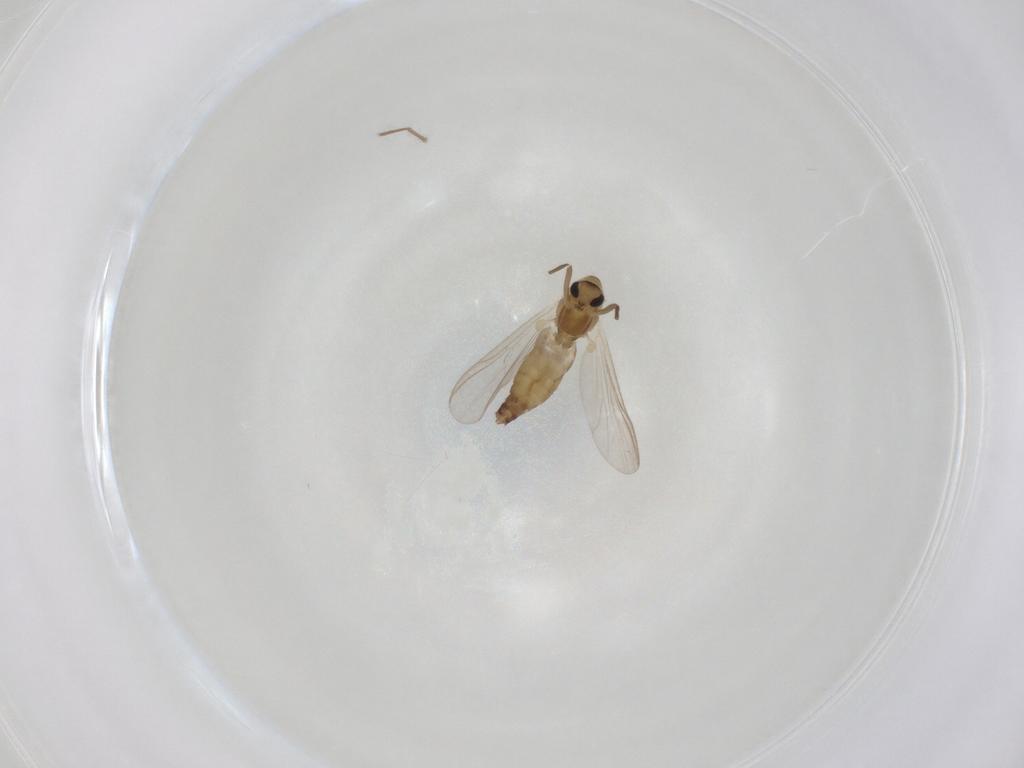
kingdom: Animalia
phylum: Arthropoda
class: Insecta
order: Diptera
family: Chironomidae
